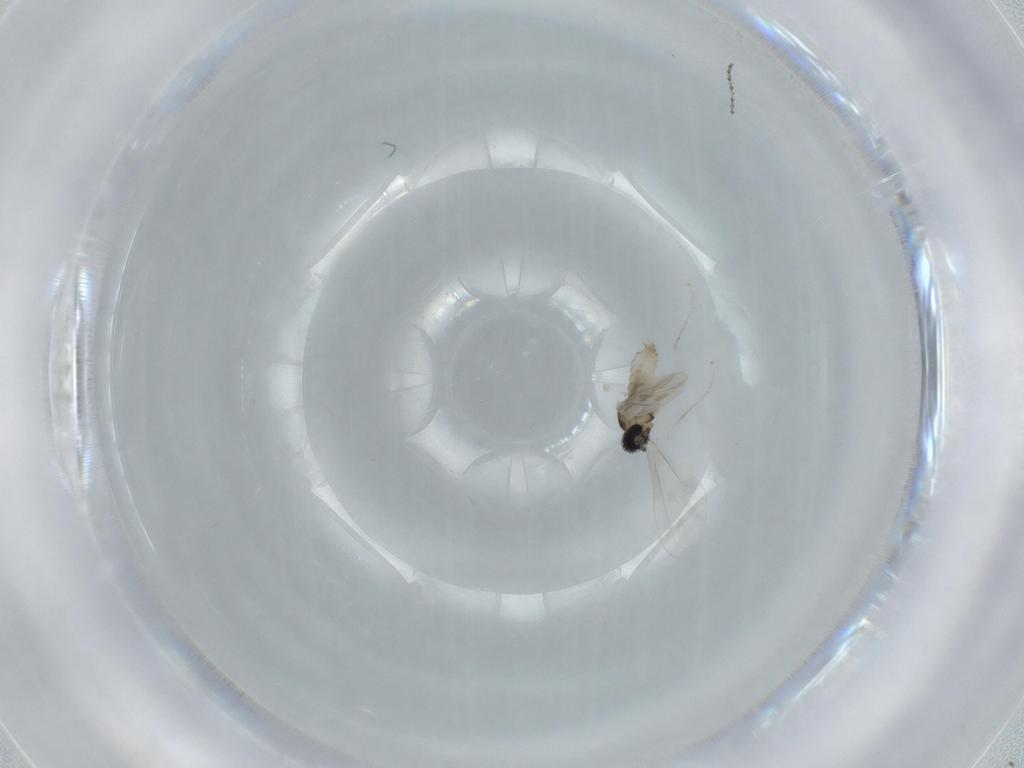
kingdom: Animalia
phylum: Arthropoda
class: Insecta
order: Diptera
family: Cecidomyiidae
